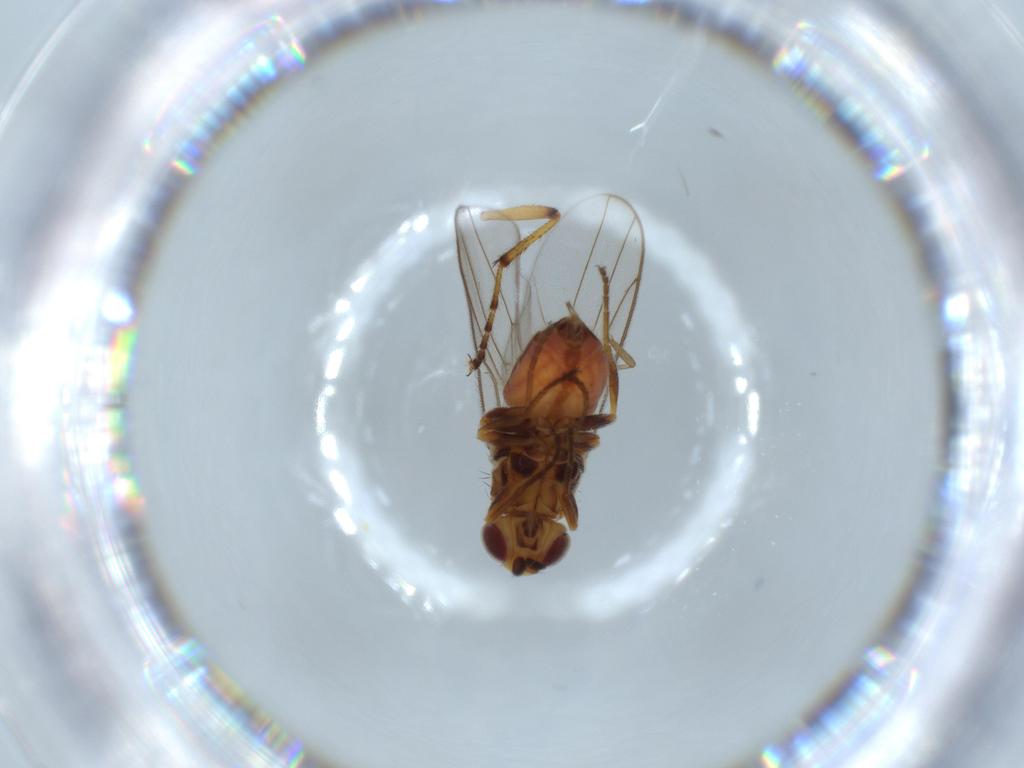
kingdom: Animalia
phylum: Arthropoda
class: Insecta
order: Diptera
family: Chloropidae
